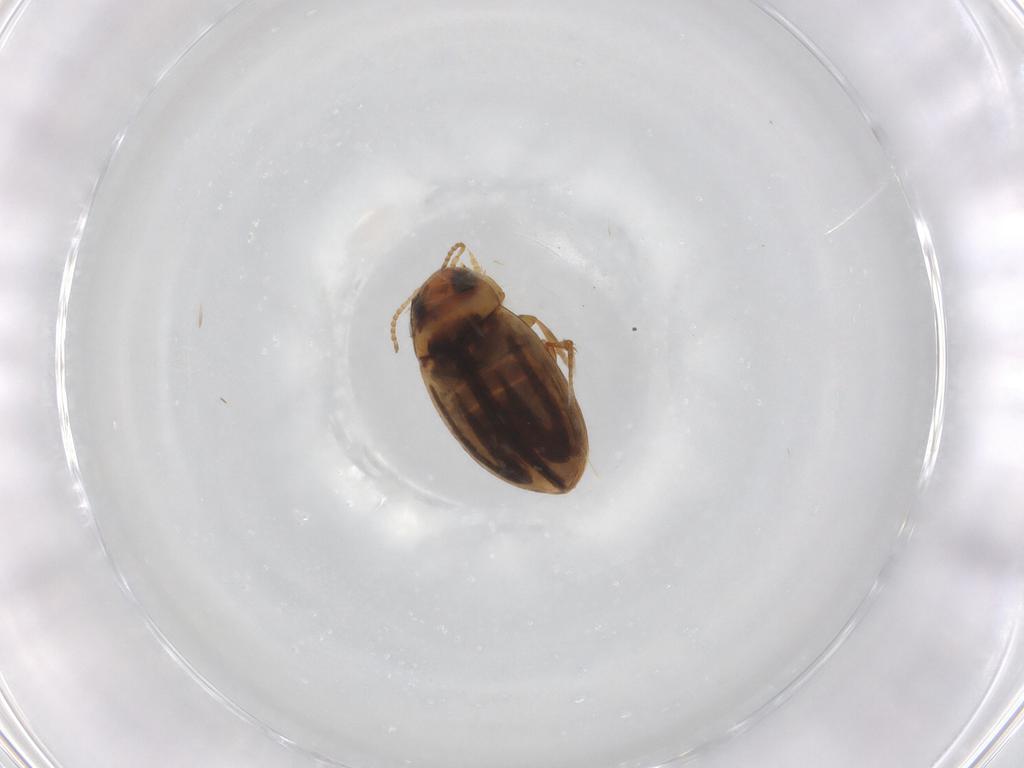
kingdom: Animalia
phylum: Arthropoda
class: Insecta
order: Coleoptera
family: Dytiscidae
